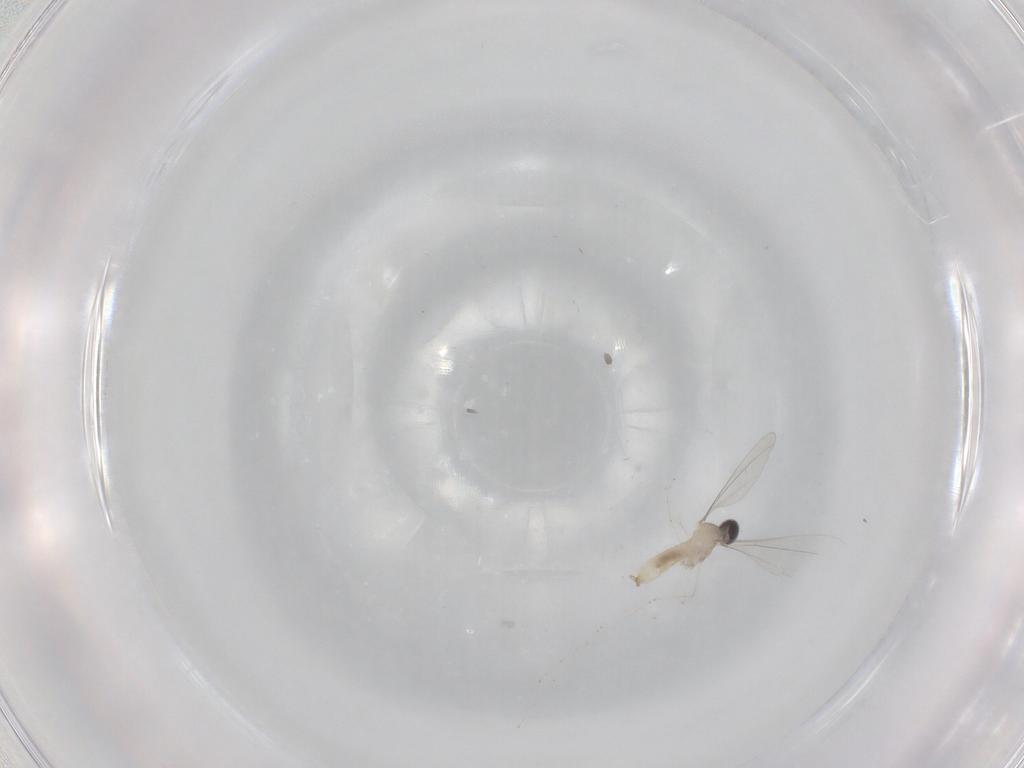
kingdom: Animalia
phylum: Arthropoda
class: Insecta
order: Diptera
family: Cecidomyiidae
